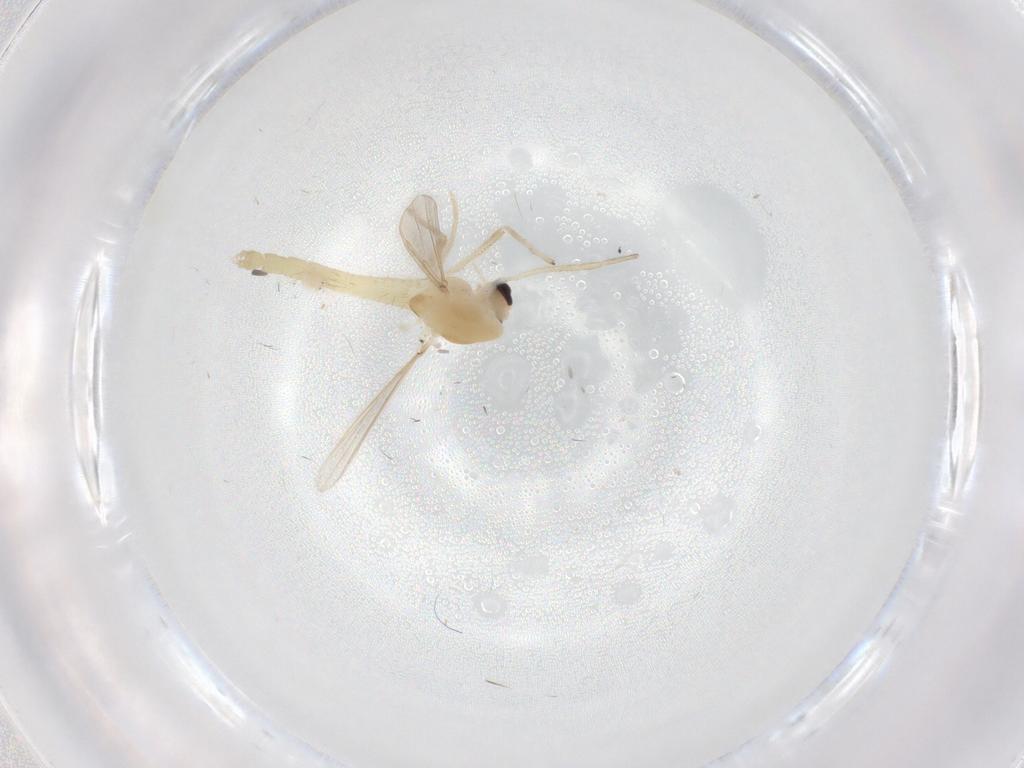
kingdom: Animalia
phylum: Arthropoda
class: Insecta
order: Diptera
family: Chironomidae
